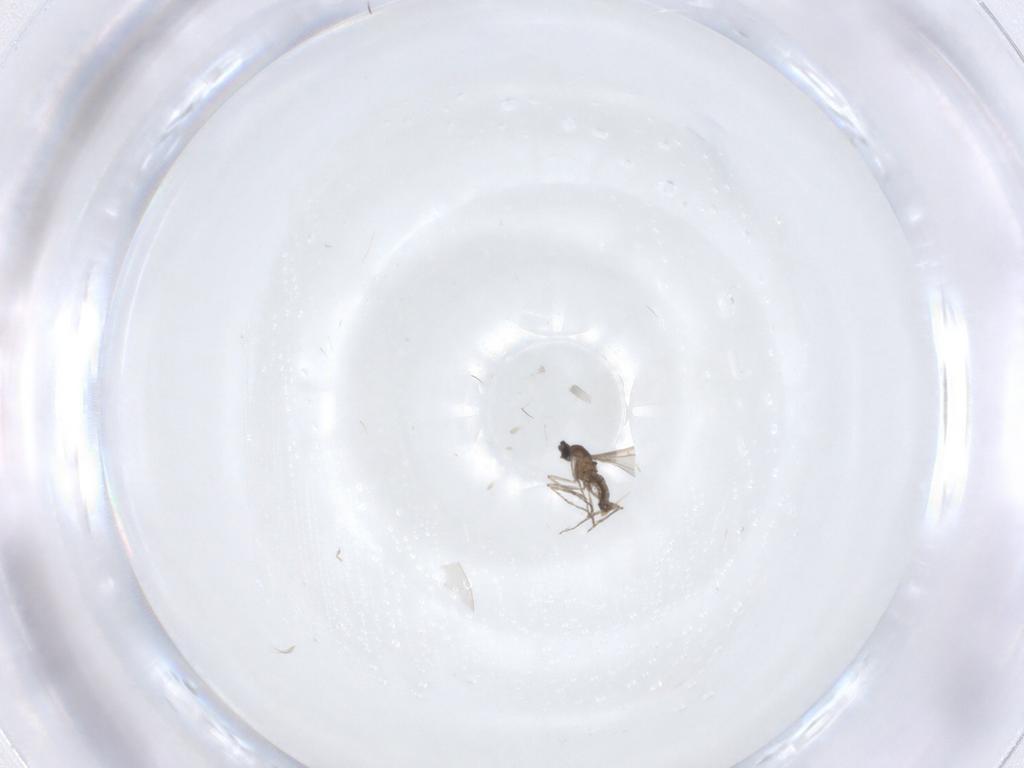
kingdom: Animalia
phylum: Arthropoda
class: Insecta
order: Diptera
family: Cecidomyiidae
